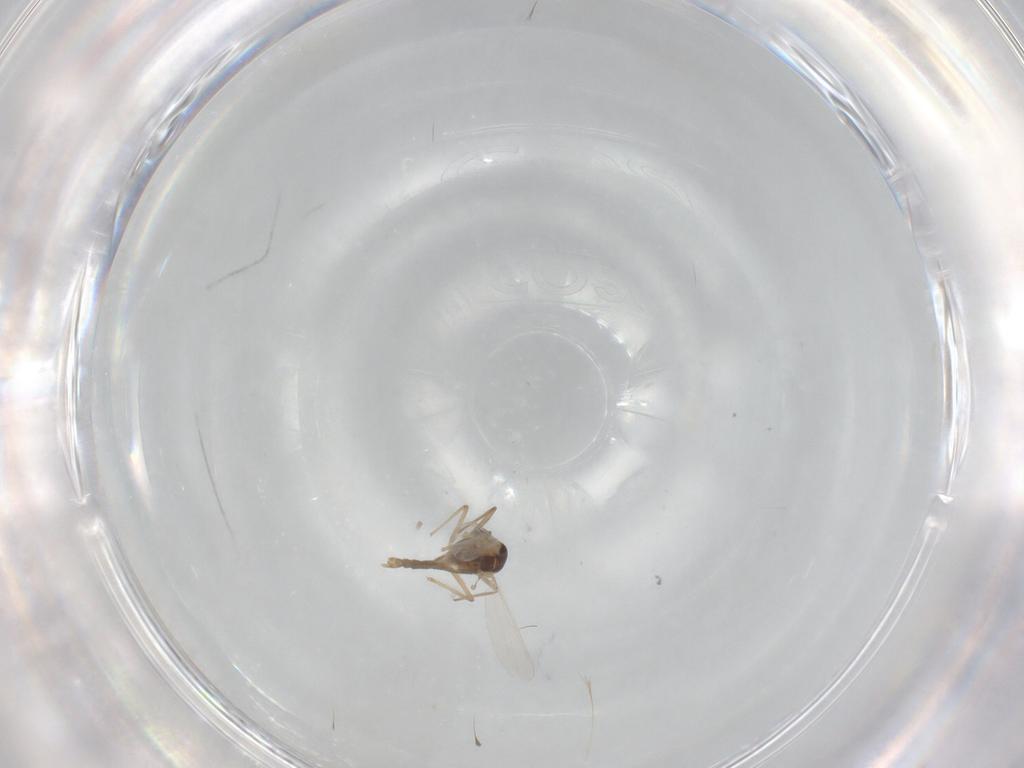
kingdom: Animalia
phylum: Arthropoda
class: Insecta
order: Diptera
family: Chironomidae
